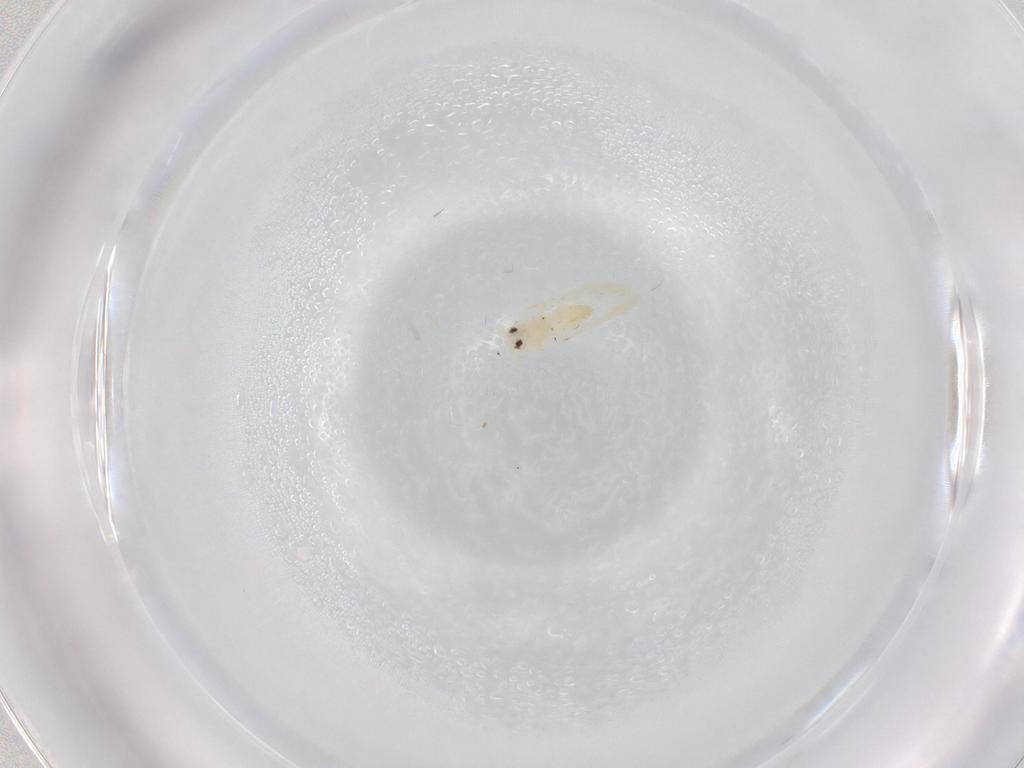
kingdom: Animalia
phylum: Arthropoda
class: Insecta
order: Hemiptera
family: Aleyrodidae
